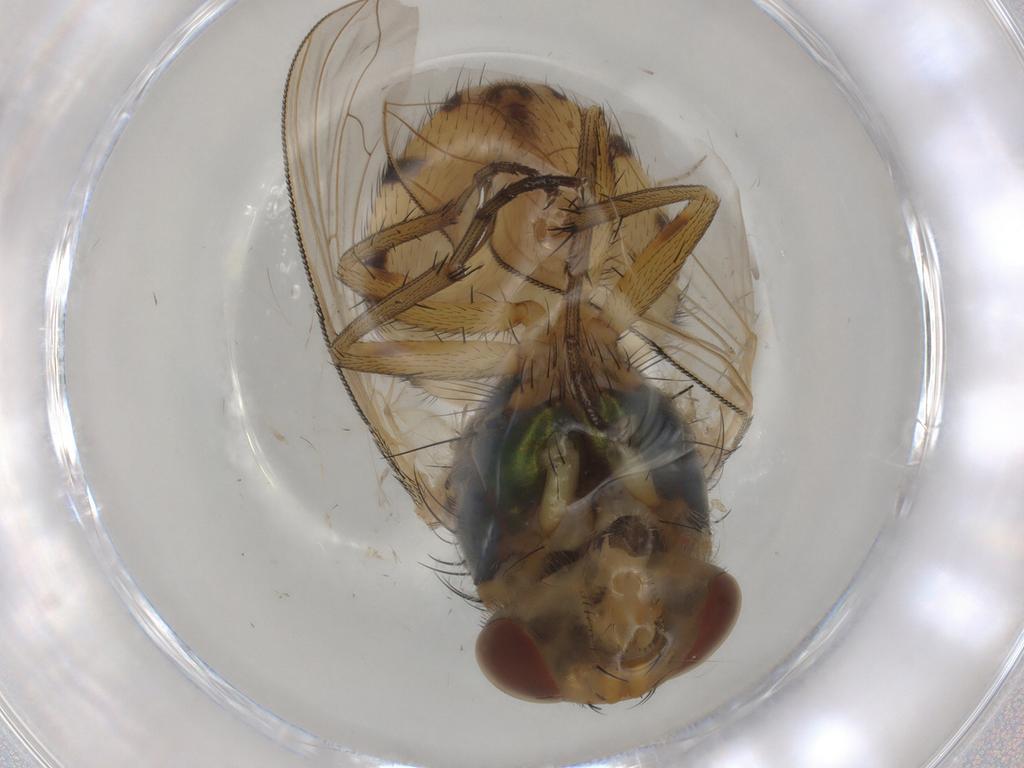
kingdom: Animalia
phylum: Arthropoda
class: Insecta
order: Diptera
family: Calliphoridae
